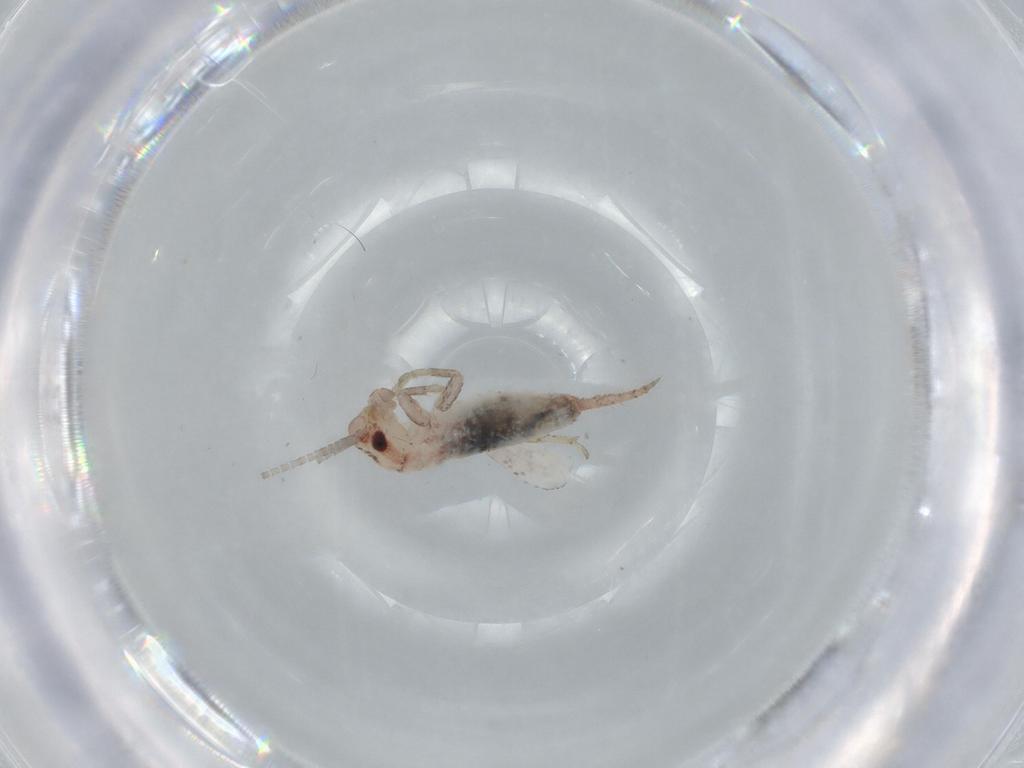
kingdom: Animalia
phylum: Arthropoda
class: Insecta
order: Orthoptera
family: Mogoplistidae
